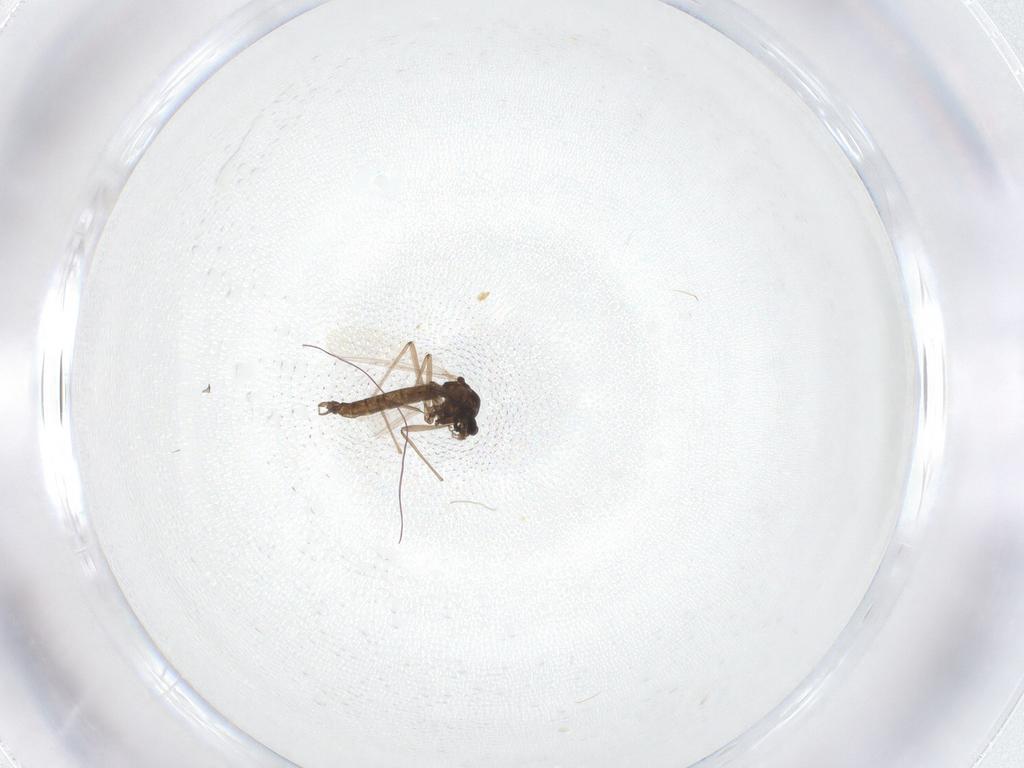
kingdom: Animalia
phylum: Arthropoda
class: Insecta
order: Diptera
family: Chironomidae
